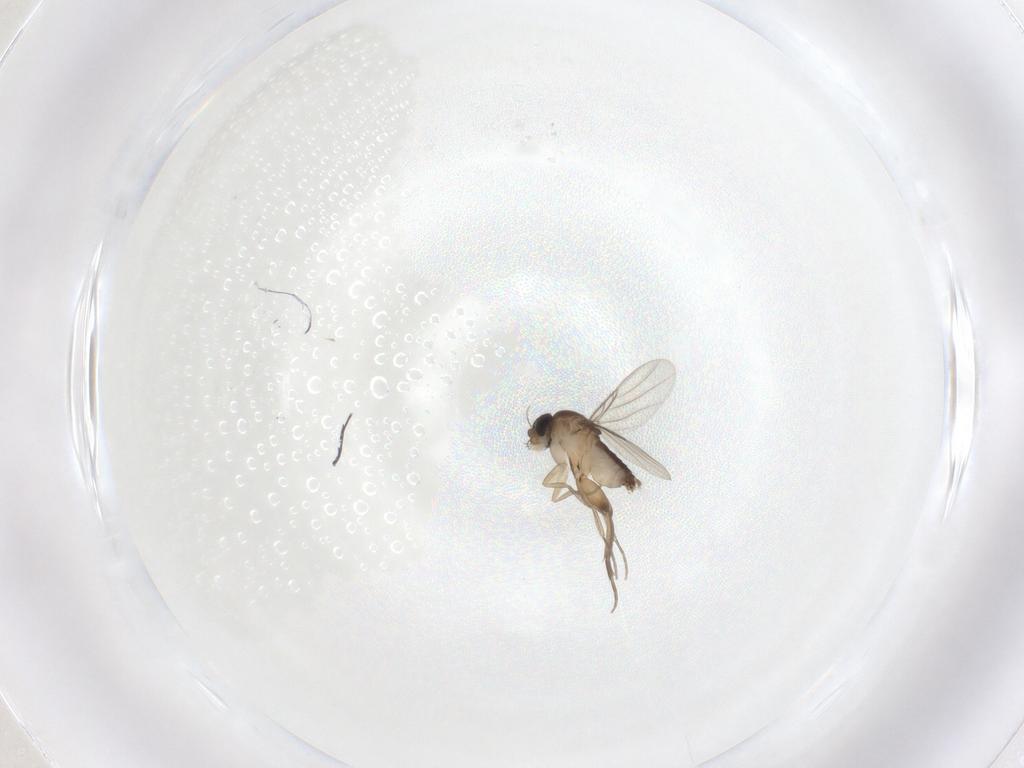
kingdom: Animalia
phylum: Arthropoda
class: Insecta
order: Diptera
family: Phoridae
